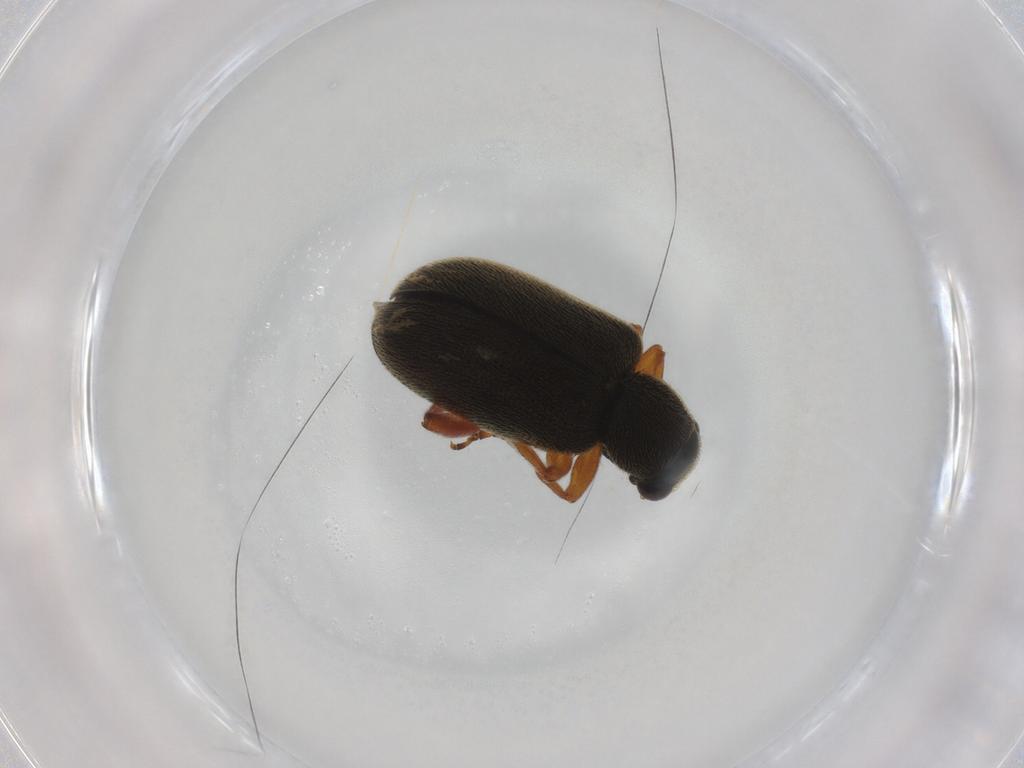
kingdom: Animalia
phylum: Arthropoda
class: Insecta
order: Coleoptera
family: Chrysomelidae
